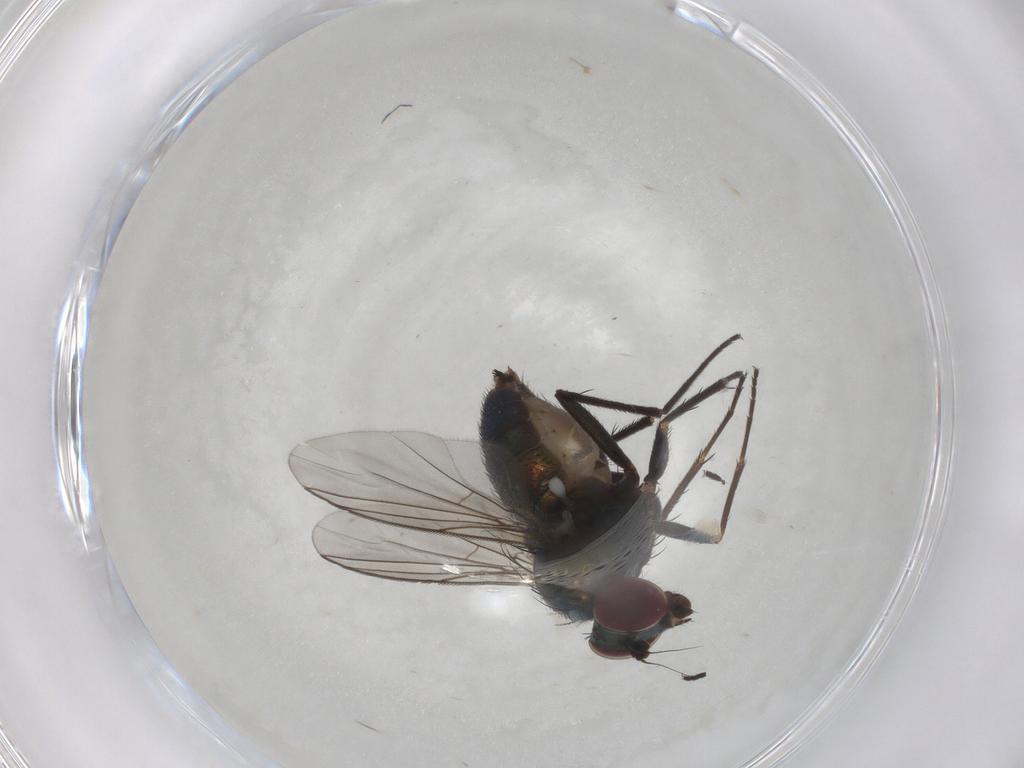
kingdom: Animalia
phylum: Arthropoda
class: Insecta
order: Diptera
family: Dolichopodidae
